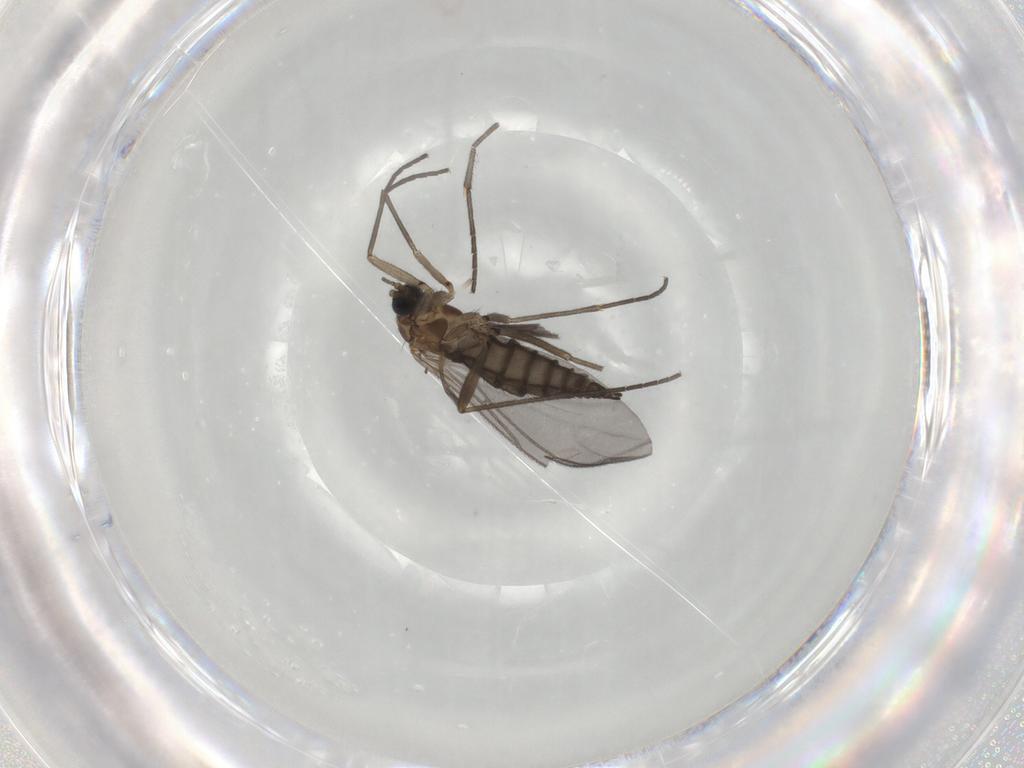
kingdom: Animalia
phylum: Arthropoda
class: Insecta
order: Diptera
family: Sciaridae
